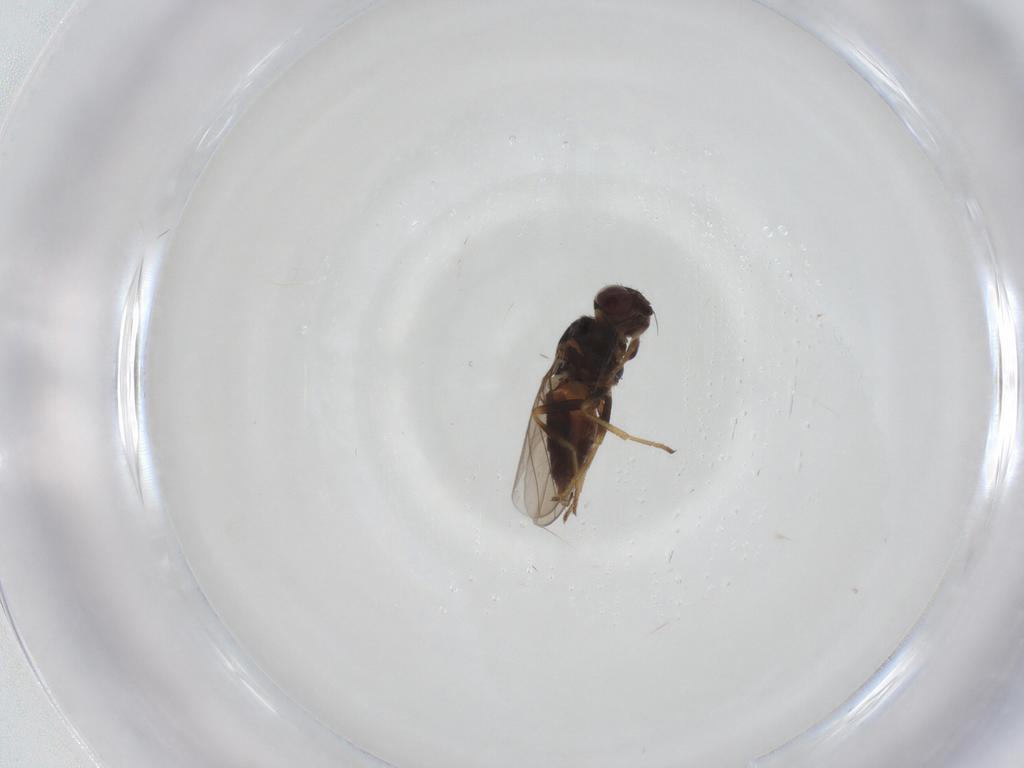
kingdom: Animalia
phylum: Arthropoda
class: Insecta
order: Diptera
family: Chloropidae
